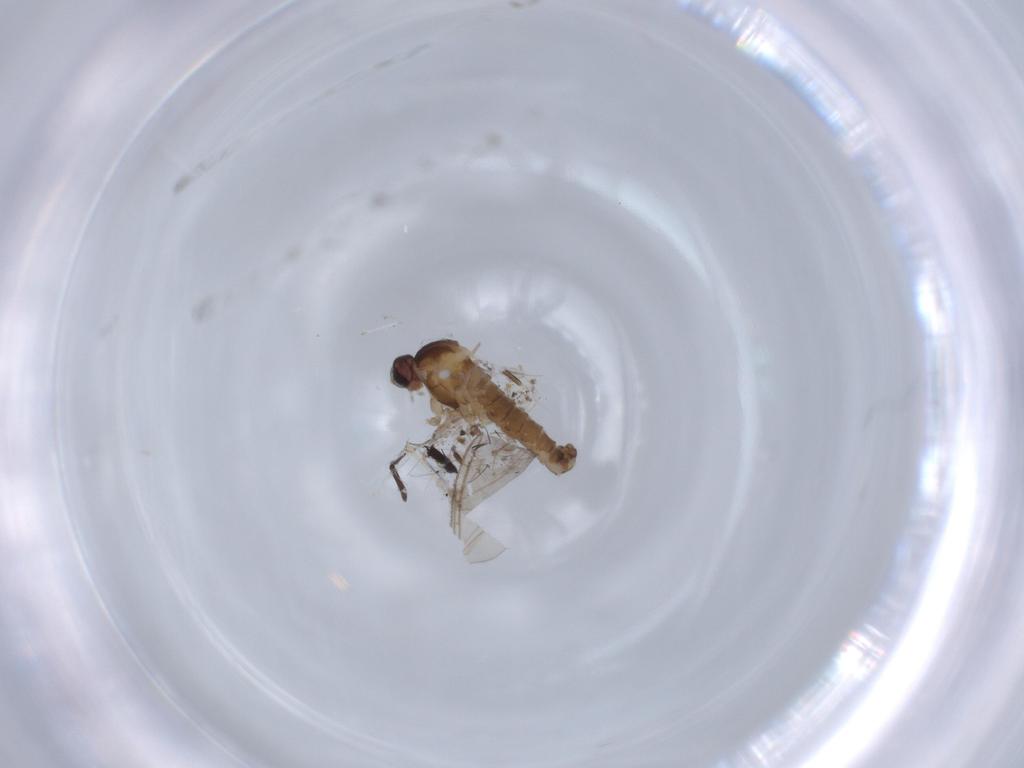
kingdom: Animalia
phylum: Arthropoda
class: Insecta
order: Diptera
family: Cecidomyiidae
